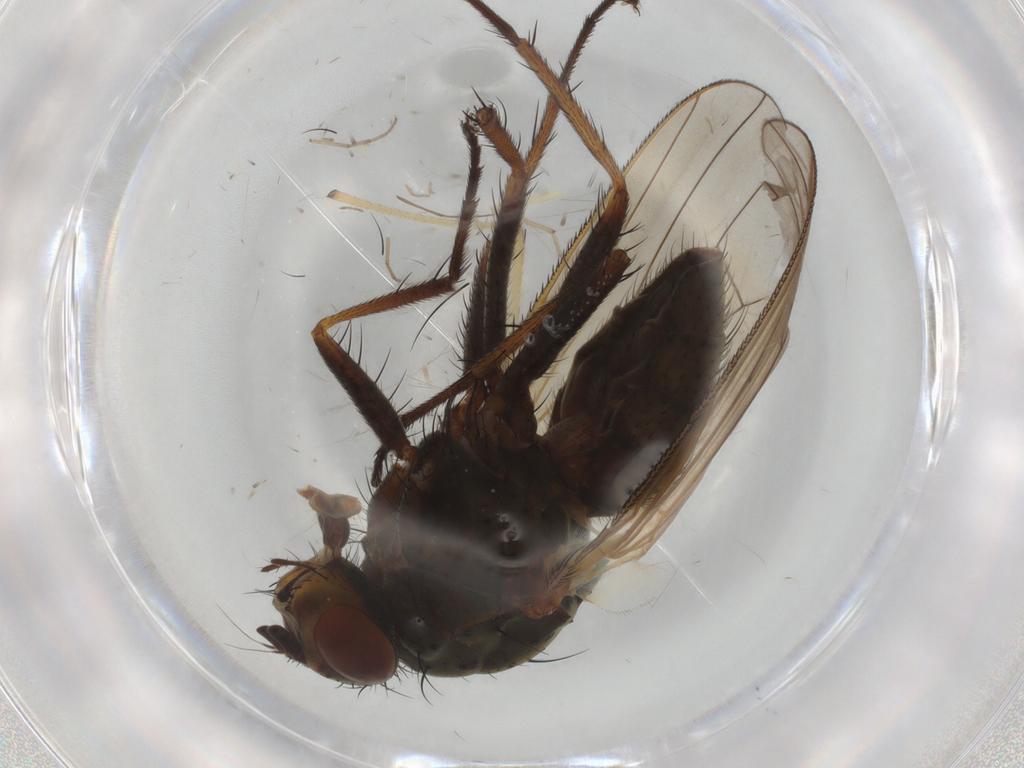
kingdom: Animalia
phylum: Arthropoda
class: Insecta
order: Diptera
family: Anthomyiidae
